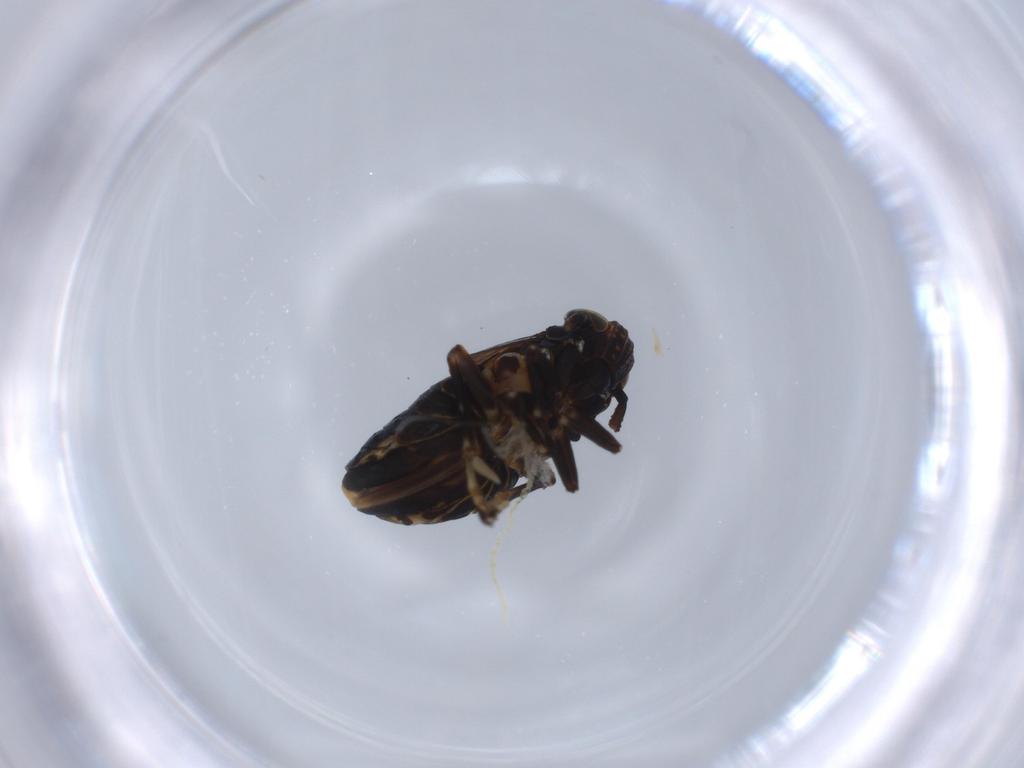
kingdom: Animalia
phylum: Arthropoda
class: Insecta
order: Hemiptera
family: Delphacidae
